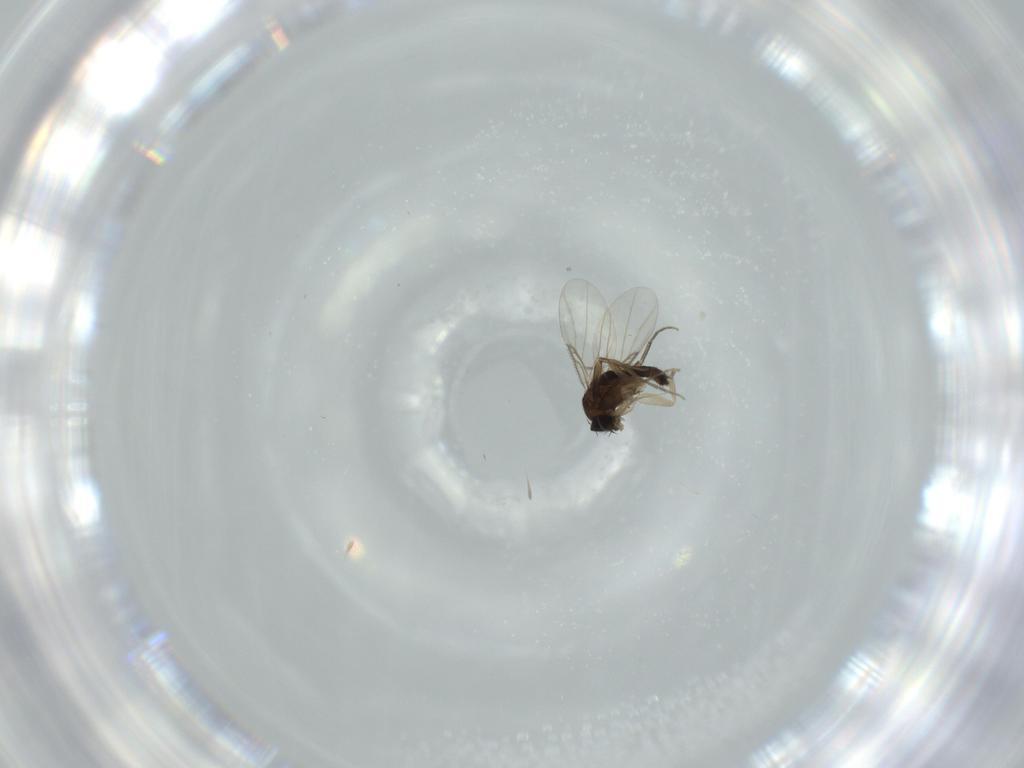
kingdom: Animalia
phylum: Arthropoda
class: Insecta
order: Diptera
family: Phoridae
